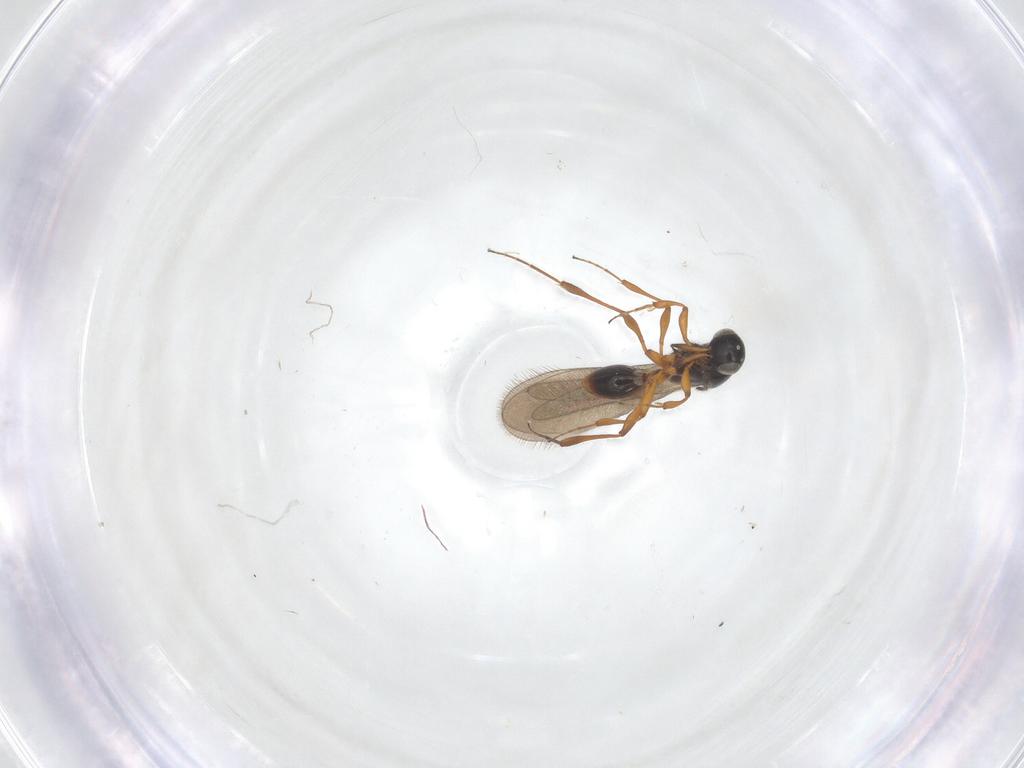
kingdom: Animalia
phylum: Arthropoda
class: Insecta
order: Hymenoptera
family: Platygastridae
